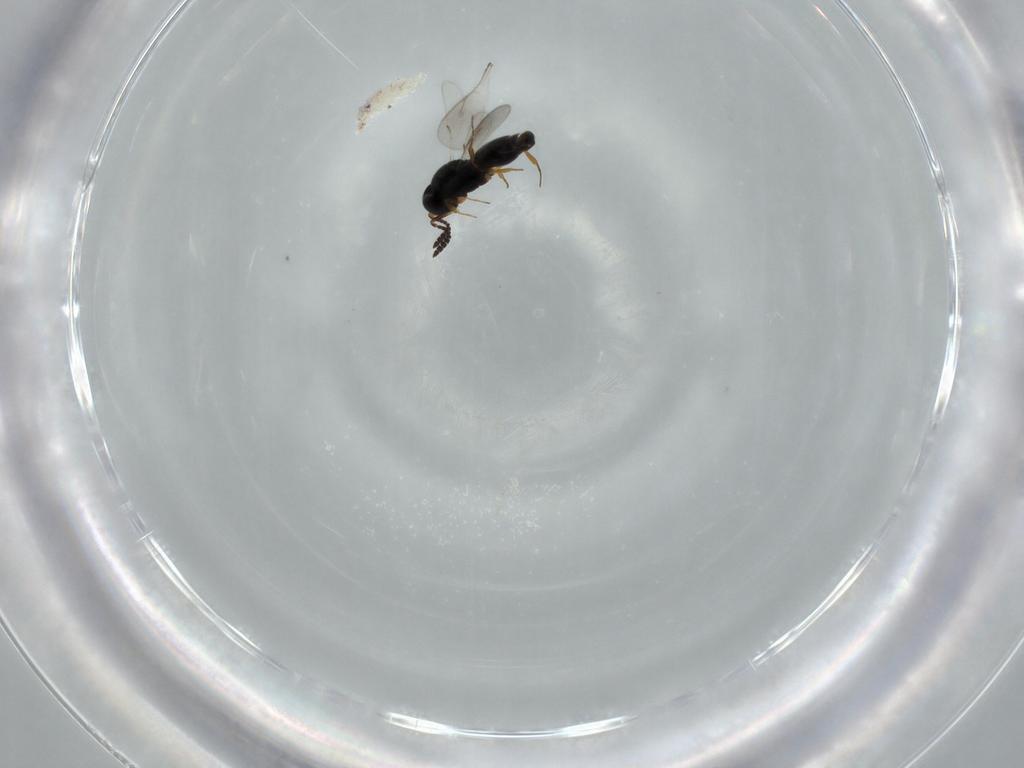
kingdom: Animalia
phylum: Arthropoda
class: Insecta
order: Hymenoptera
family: Scelionidae
